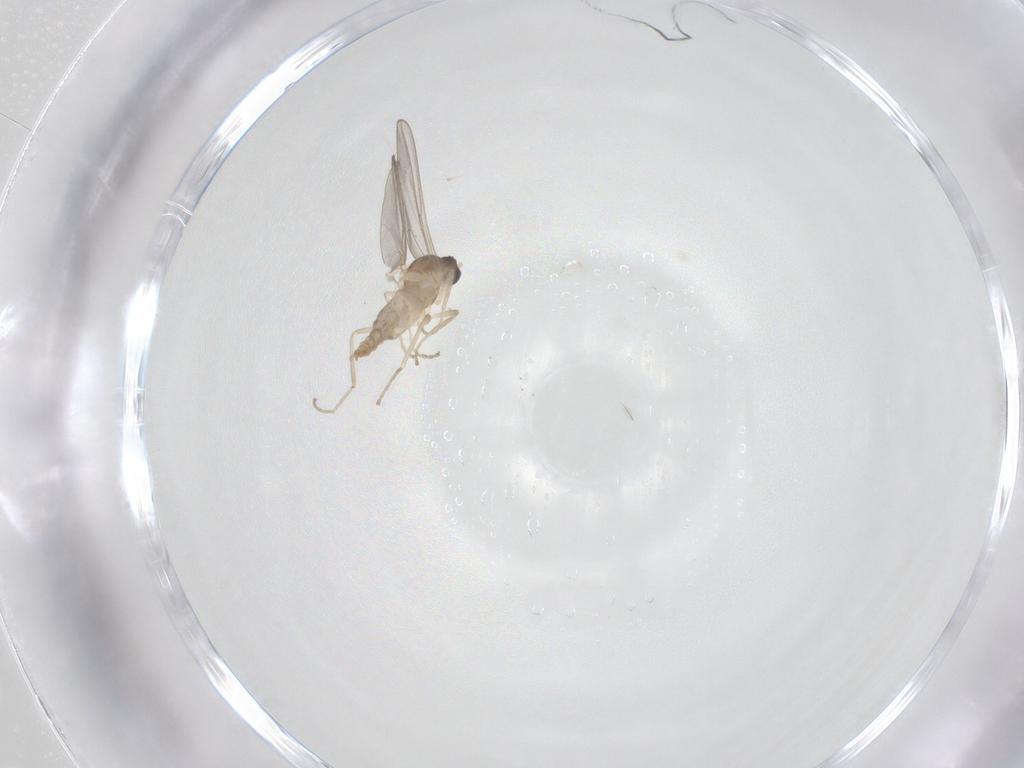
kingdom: Animalia
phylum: Arthropoda
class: Insecta
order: Diptera
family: Cecidomyiidae
